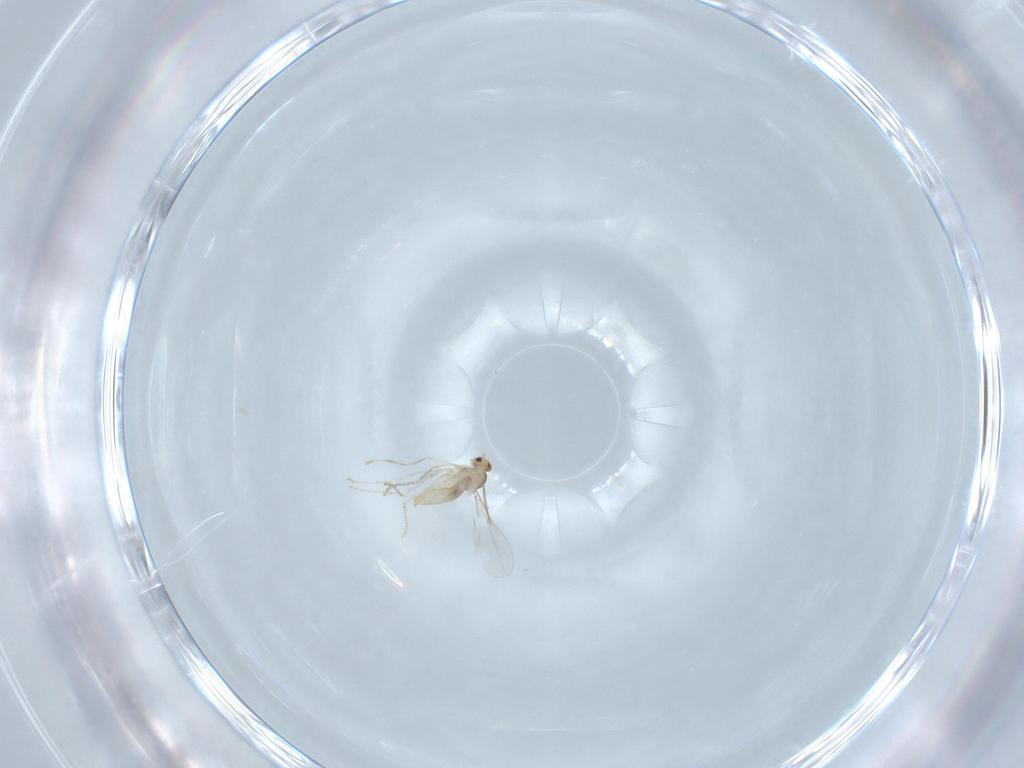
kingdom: Animalia
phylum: Arthropoda
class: Insecta
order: Diptera
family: Cecidomyiidae
